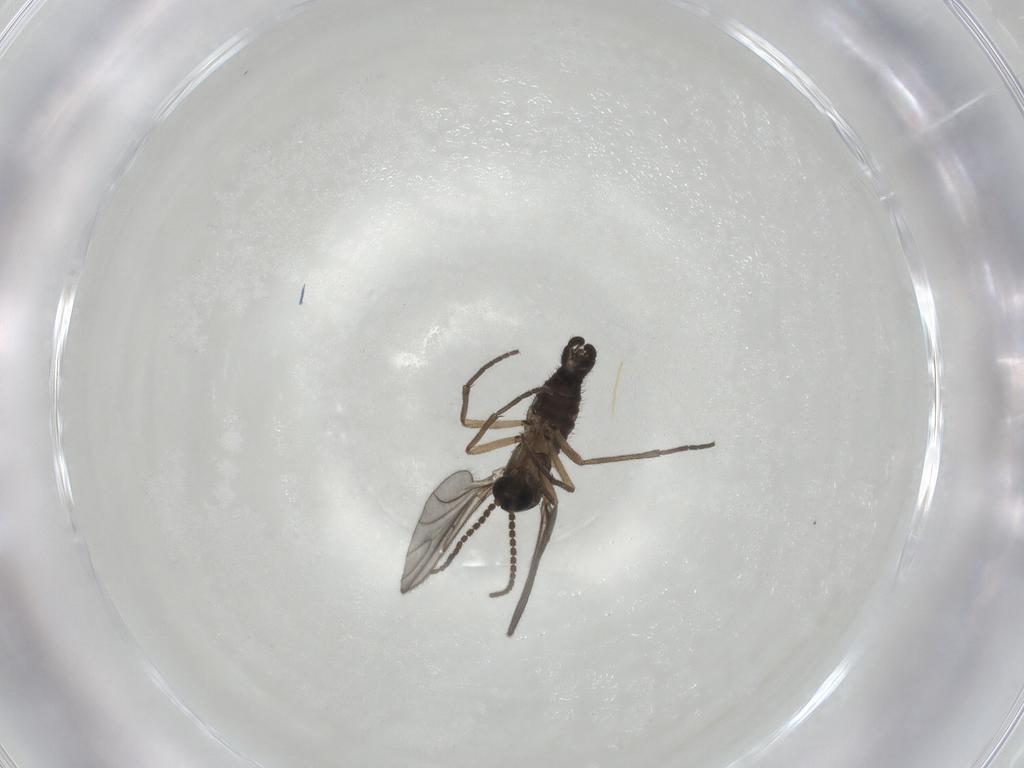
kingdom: Animalia
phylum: Arthropoda
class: Insecta
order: Diptera
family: Sciaridae
